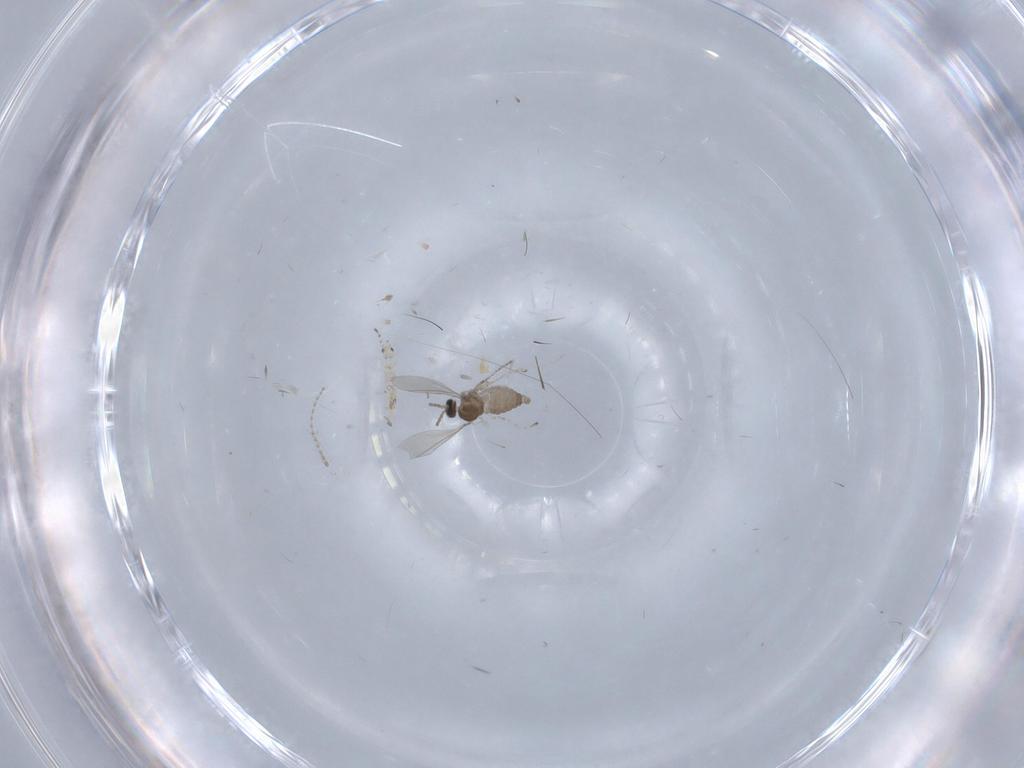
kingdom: Animalia
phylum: Arthropoda
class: Insecta
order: Diptera
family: Cecidomyiidae
